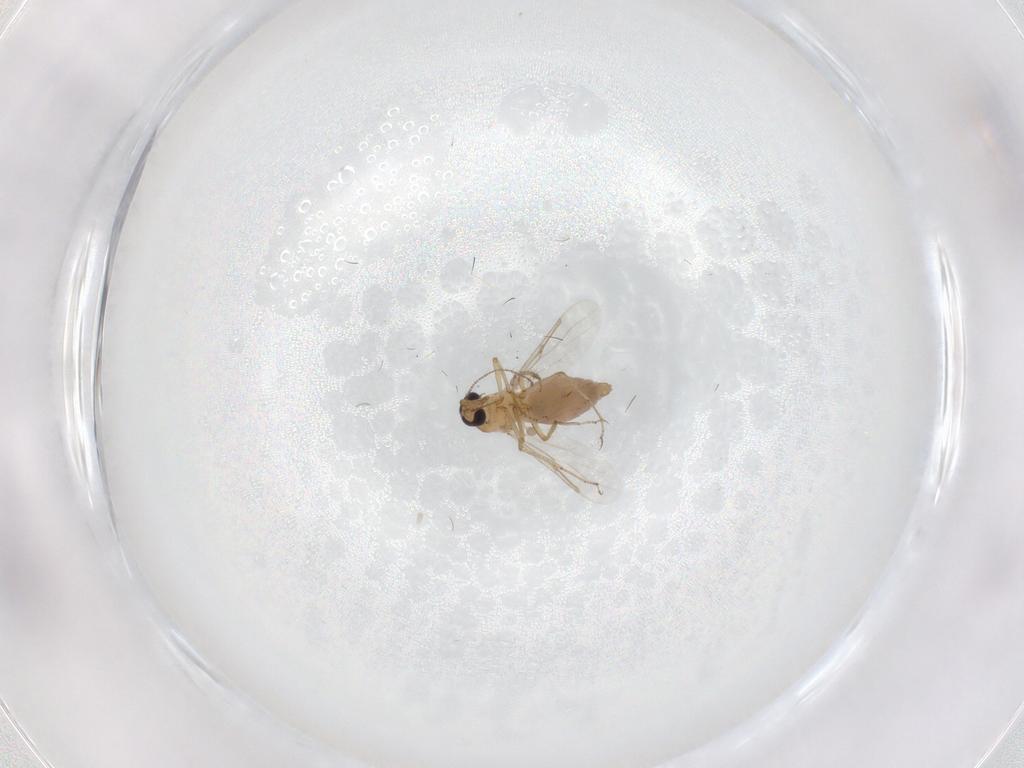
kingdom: Animalia
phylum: Arthropoda
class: Insecta
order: Diptera
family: Ceratopogonidae
